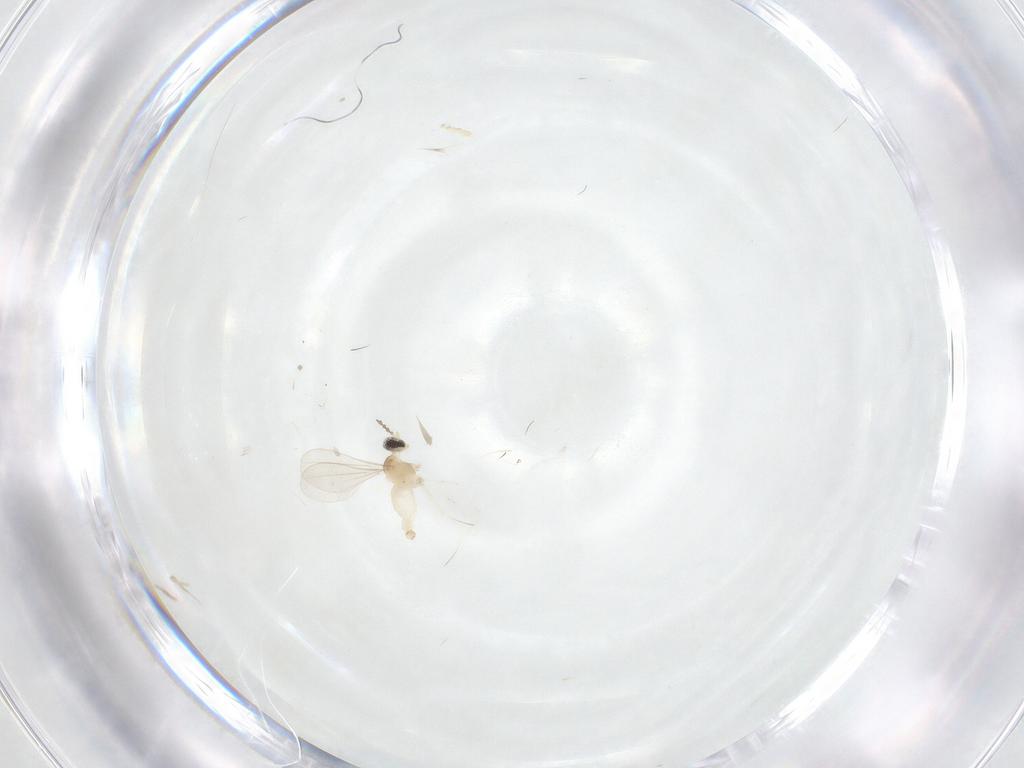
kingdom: Animalia
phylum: Arthropoda
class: Insecta
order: Diptera
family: Cecidomyiidae
